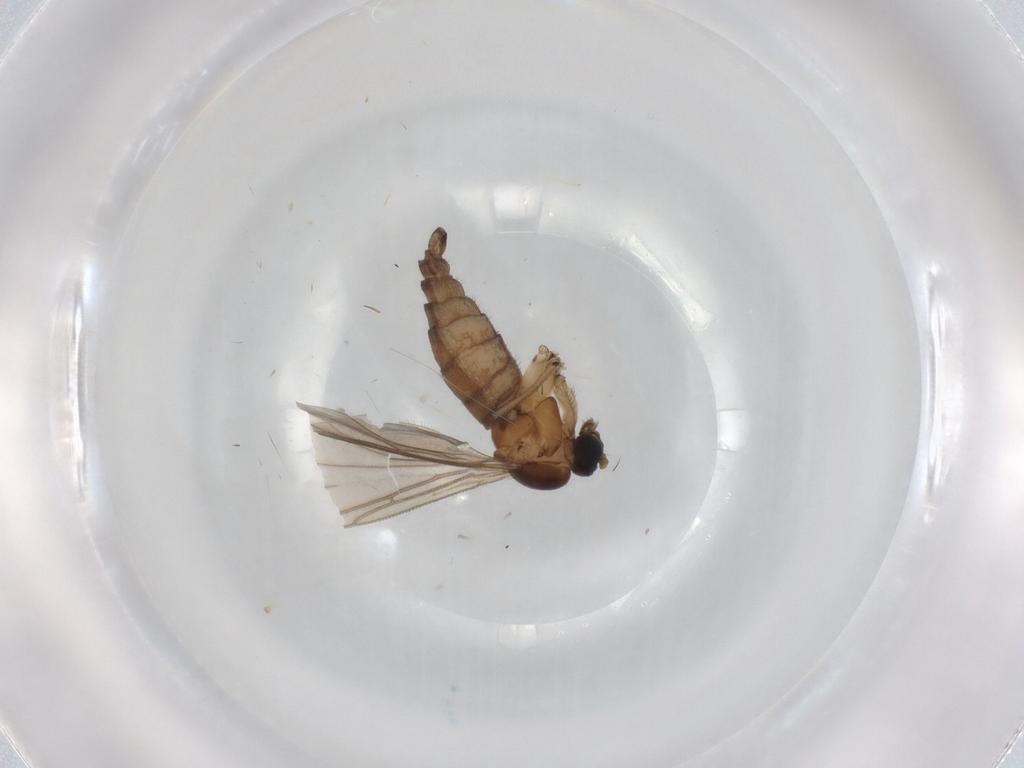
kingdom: Animalia
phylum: Arthropoda
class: Insecta
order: Diptera
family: Sciaridae
